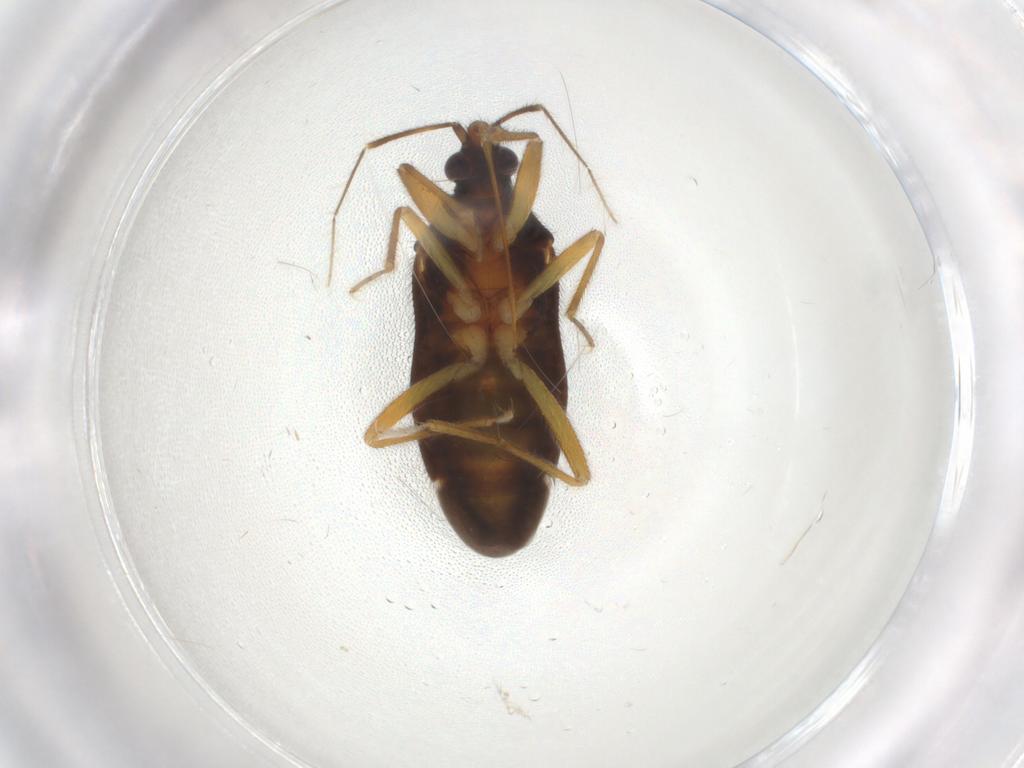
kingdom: Animalia
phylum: Arthropoda
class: Insecta
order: Hemiptera
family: Anthocoridae
